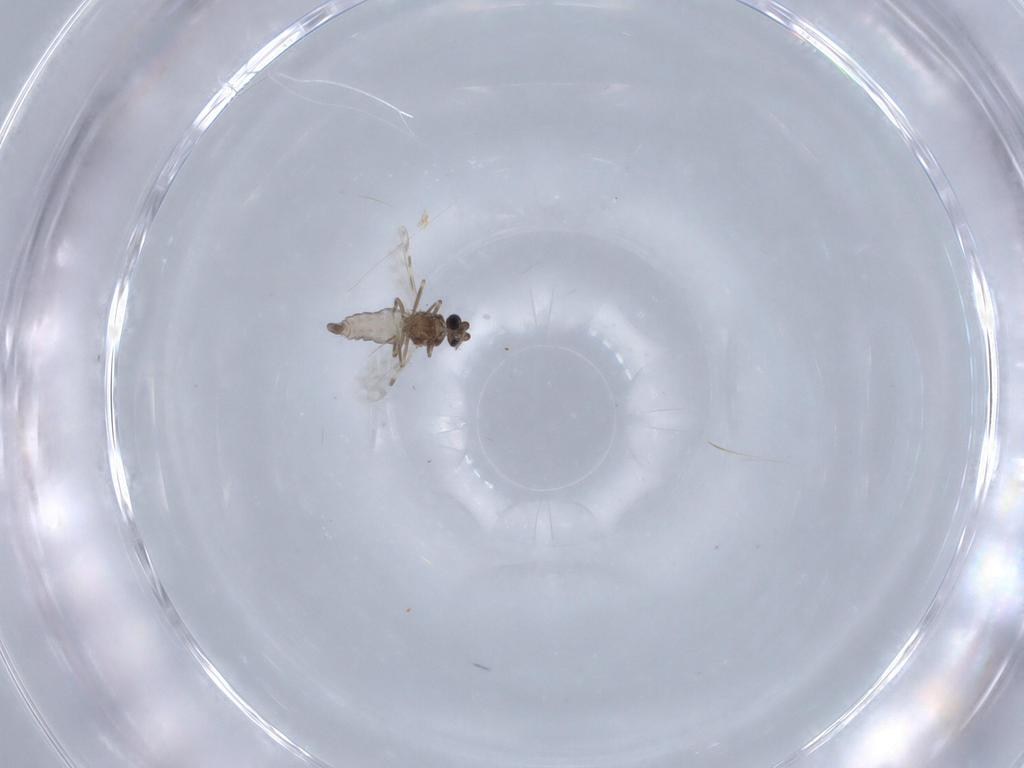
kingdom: Animalia
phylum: Arthropoda
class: Insecta
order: Diptera
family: Ceratopogonidae
